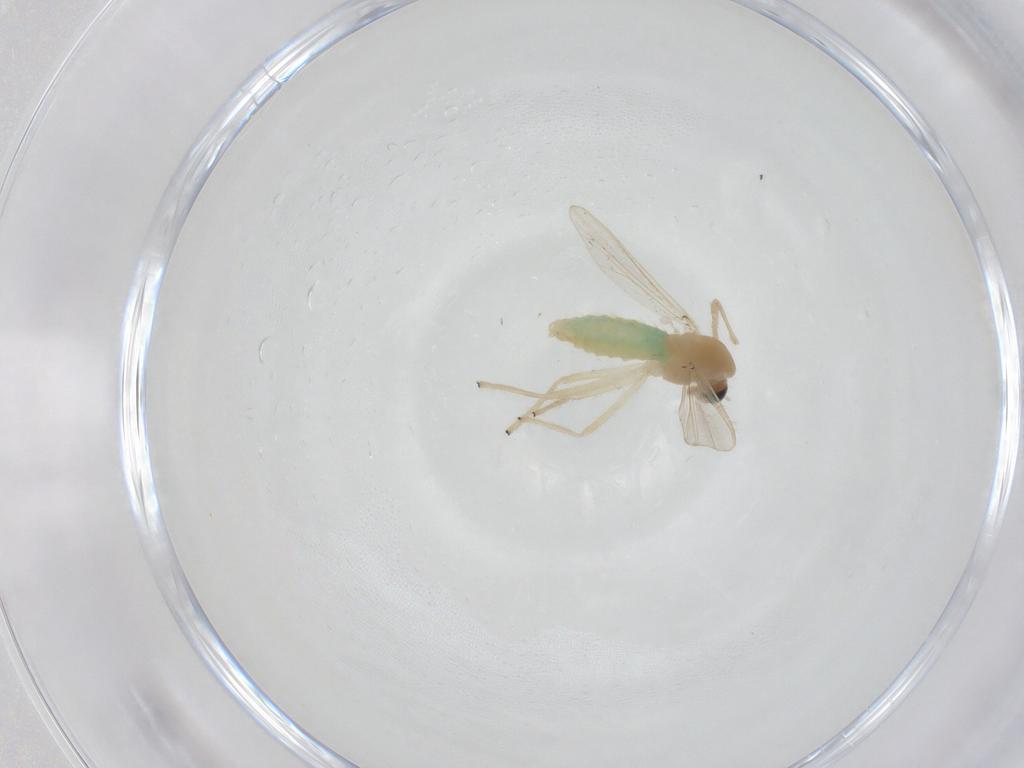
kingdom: Animalia
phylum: Arthropoda
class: Insecta
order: Diptera
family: Chironomidae
